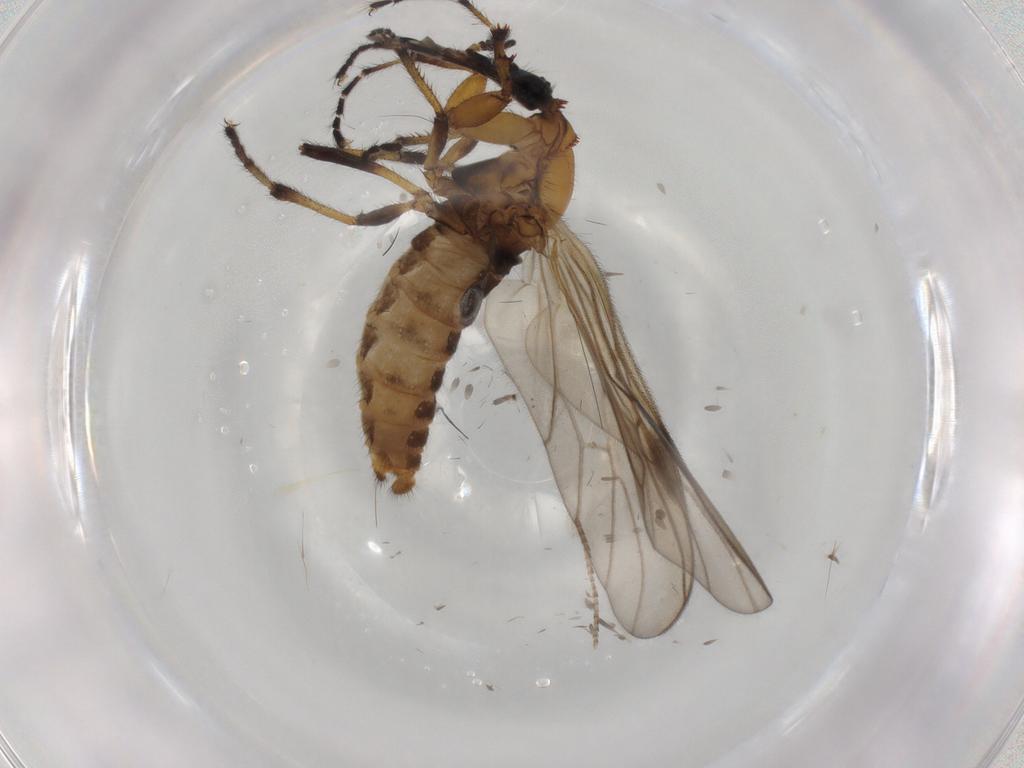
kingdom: Animalia
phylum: Arthropoda
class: Insecta
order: Diptera
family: Bibionidae
